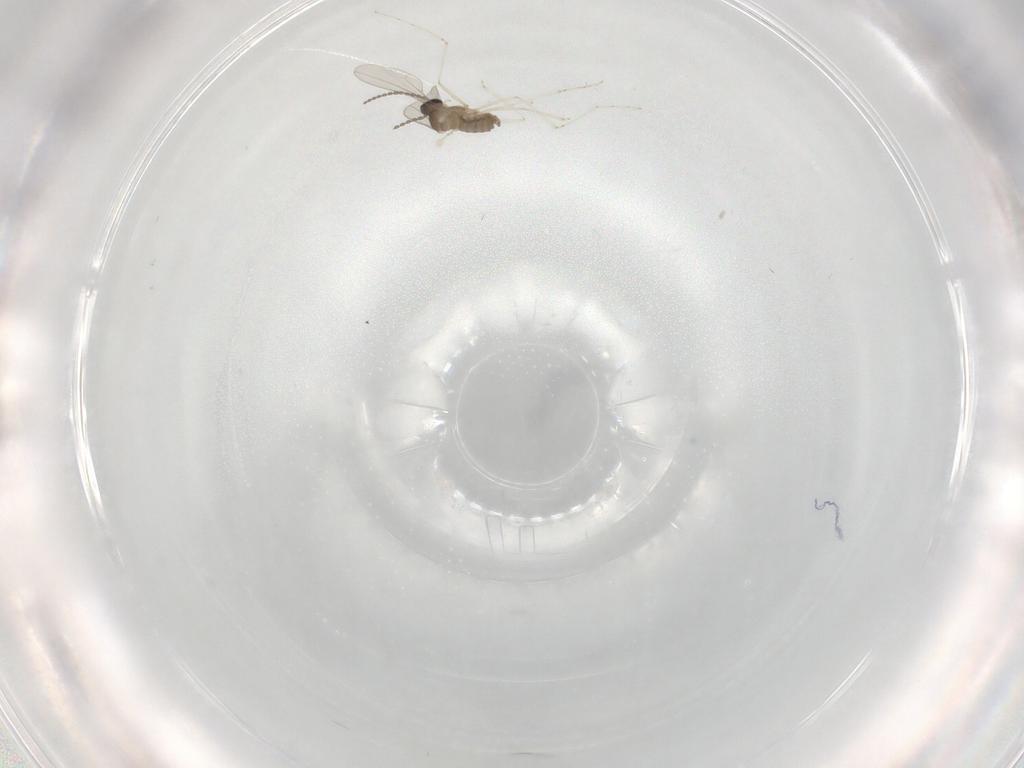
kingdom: Animalia
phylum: Arthropoda
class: Insecta
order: Diptera
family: Cecidomyiidae
